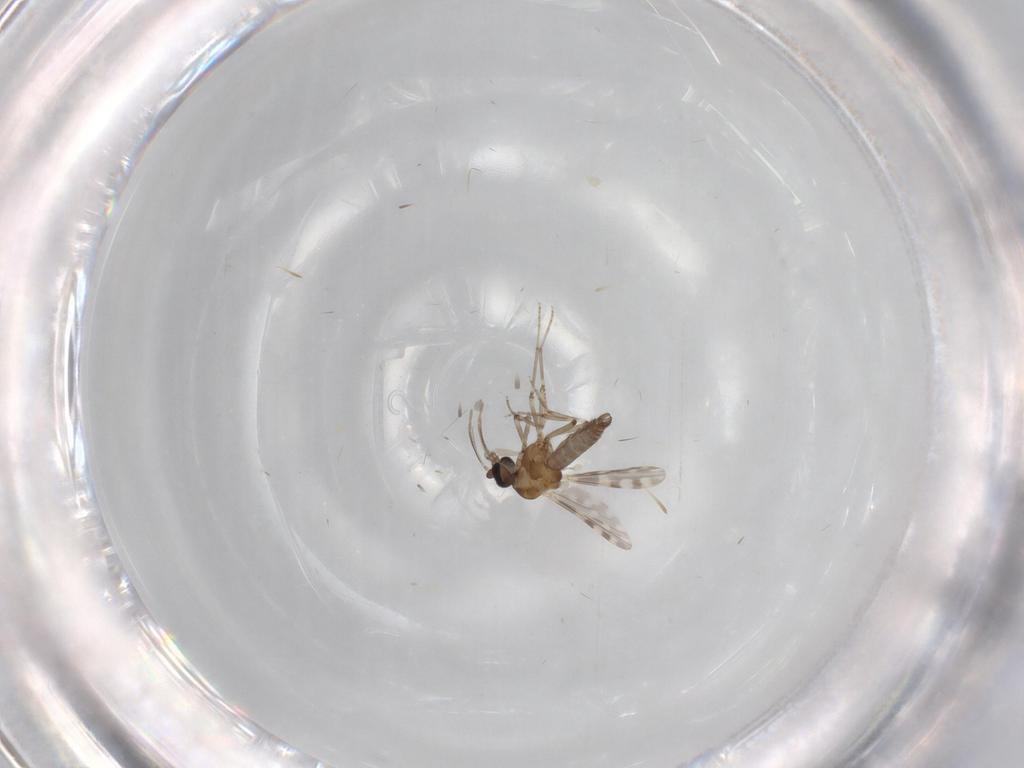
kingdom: Animalia
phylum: Arthropoda
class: Insecta
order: Diptera
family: Ceratopogonidae
